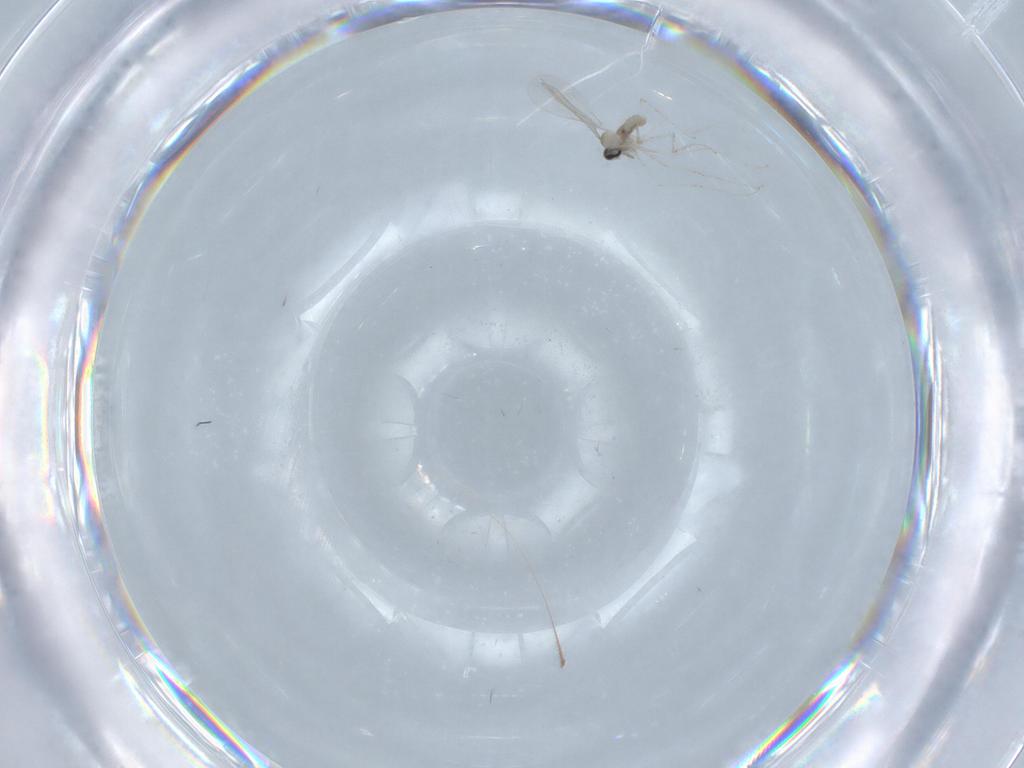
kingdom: Animalia
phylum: Arthropoda
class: Insecta
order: Diptera
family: Cecidomyiidae
